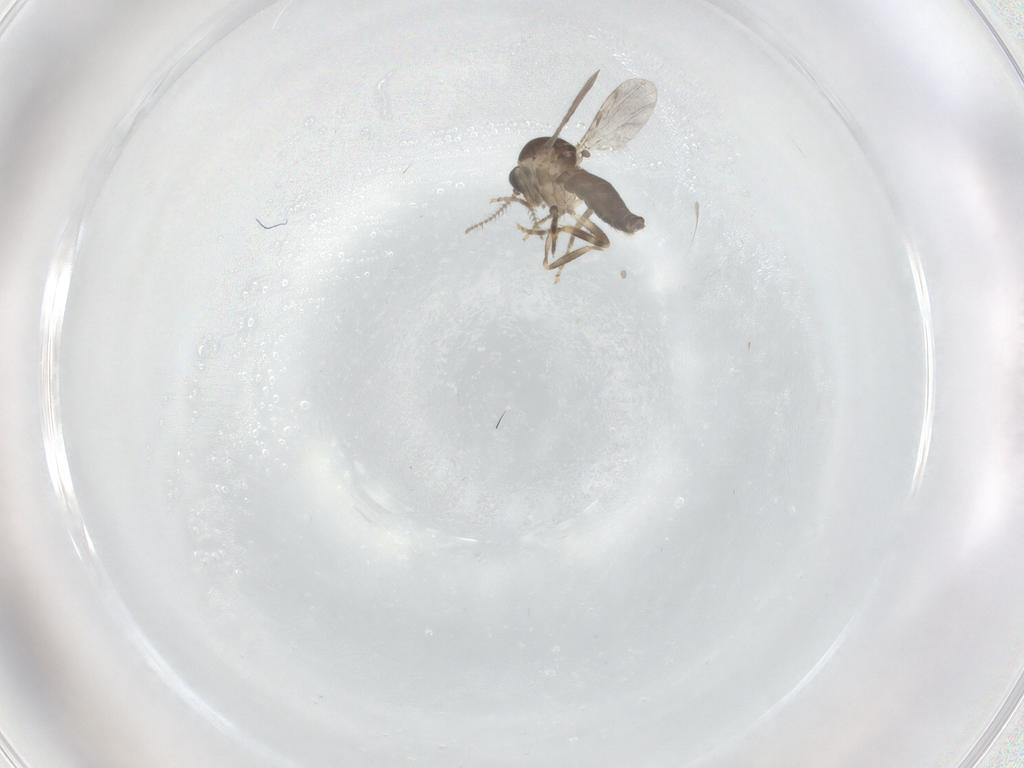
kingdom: Animalia
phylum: Arthropoda
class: Insecta
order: Diptera
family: Ceratopogonidae
